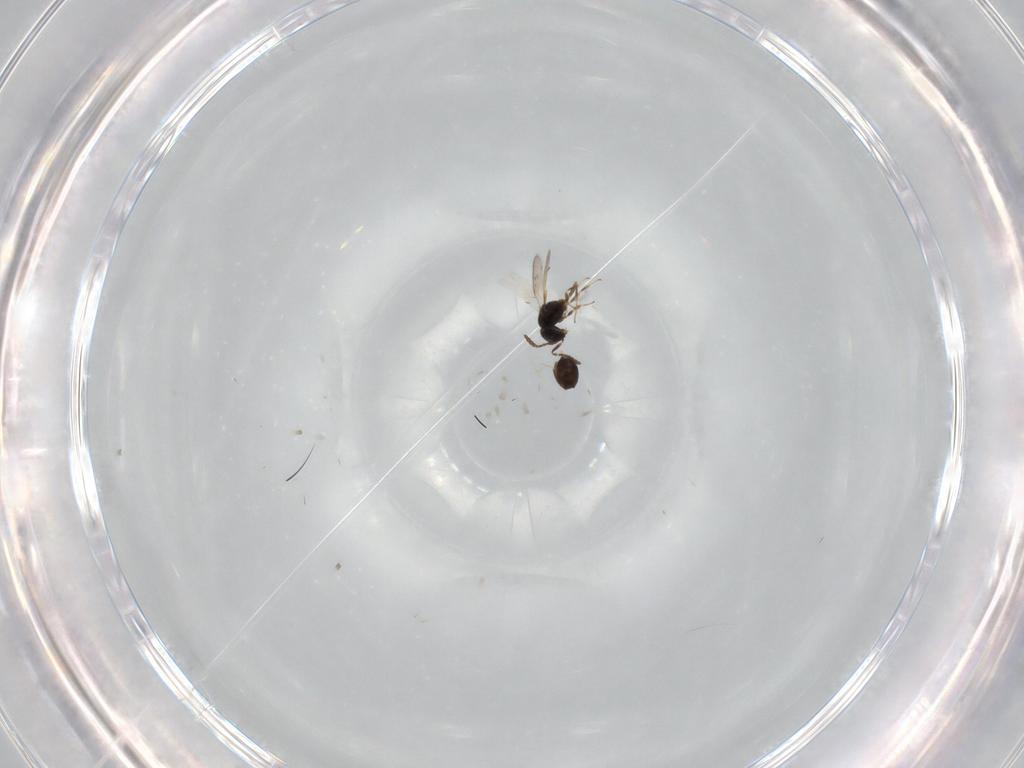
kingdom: Animalia
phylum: Arthropoda
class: Insecta
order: Hymenoptera
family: Scelionidae
